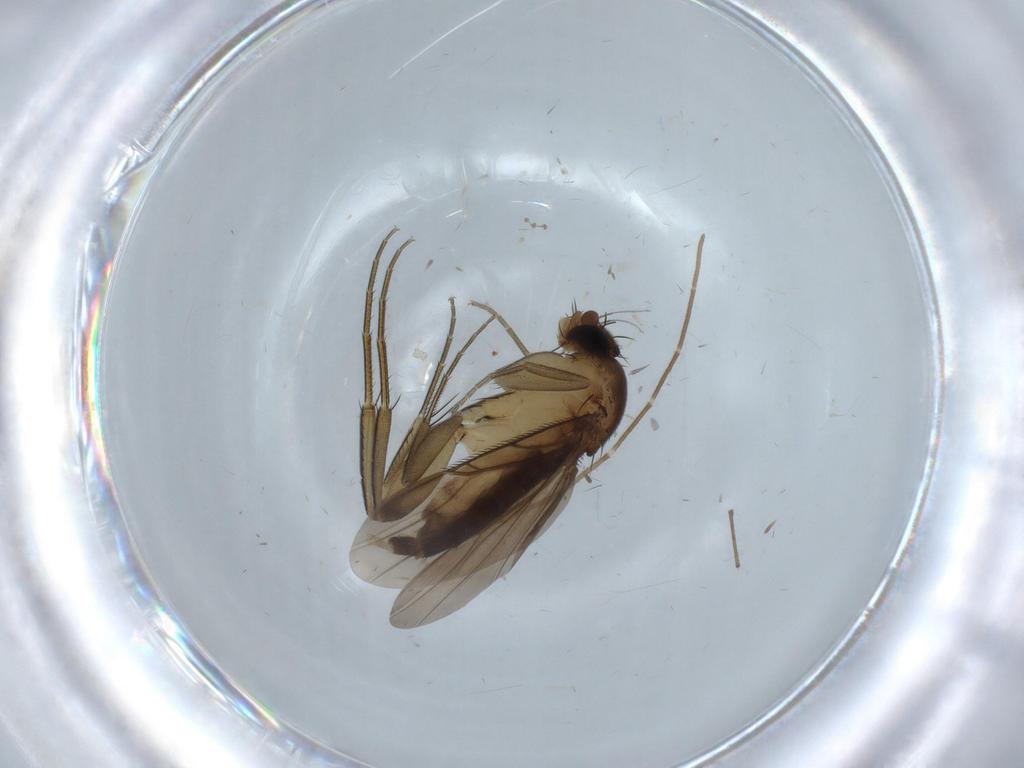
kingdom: Animalia
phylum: Arthropoda
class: Insecta
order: Diptera
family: Phoridae
